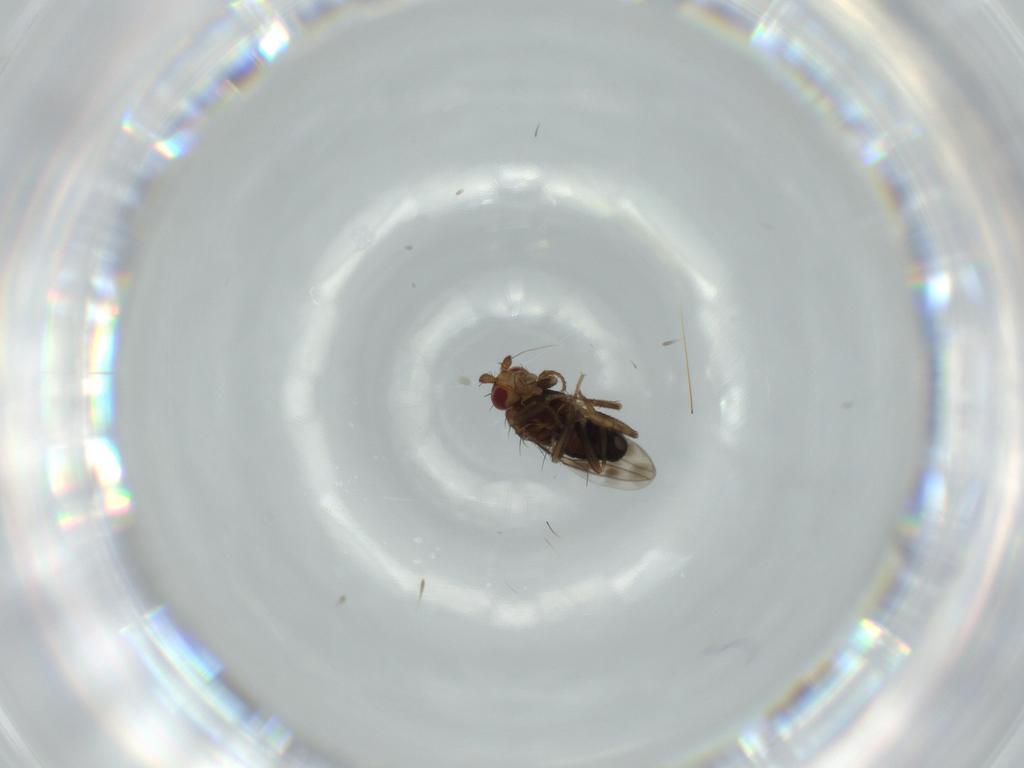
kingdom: Animalia
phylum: Arthropoda
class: Insecta
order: Diptera
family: Sphaeroceridae
